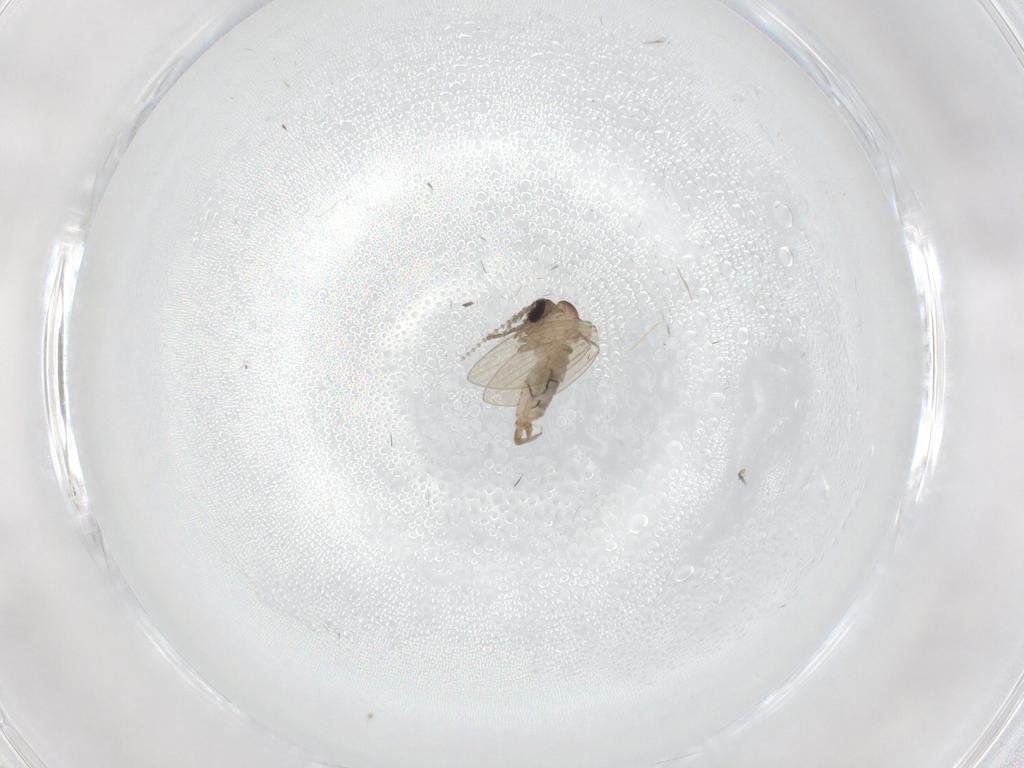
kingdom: Animalia
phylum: Arthropoda
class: Insecta
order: Diptera
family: Psychodidae
